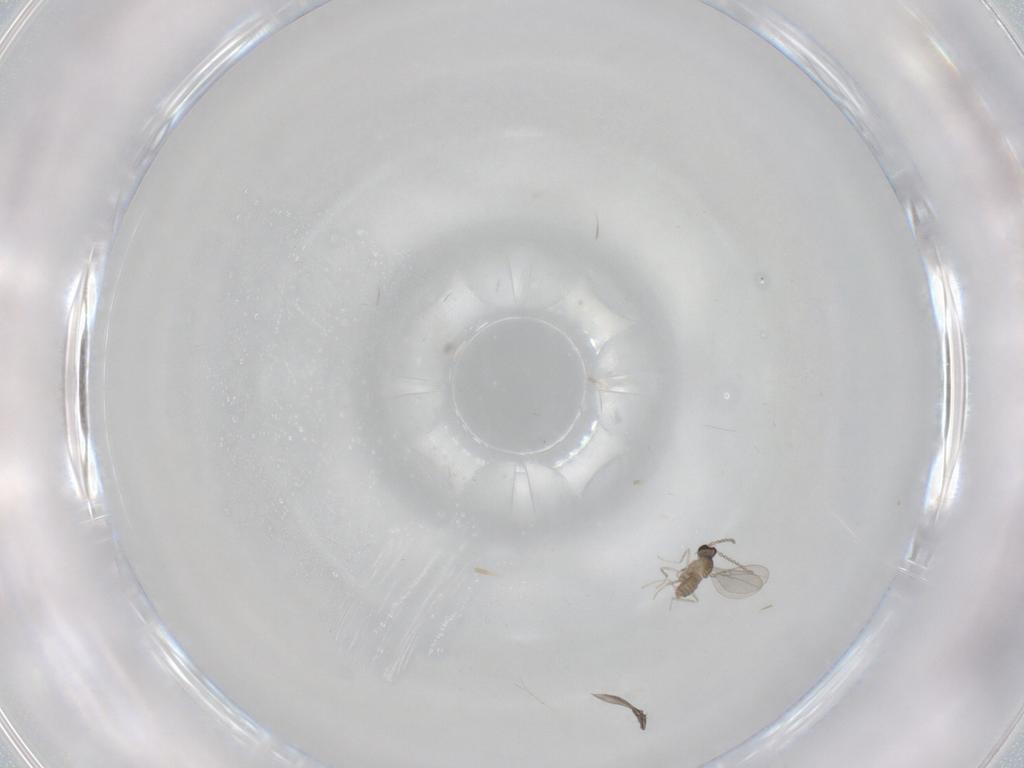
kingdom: Animalia
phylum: Arthropoda
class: Insecta
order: Diptera
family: Cecidomyiidae
